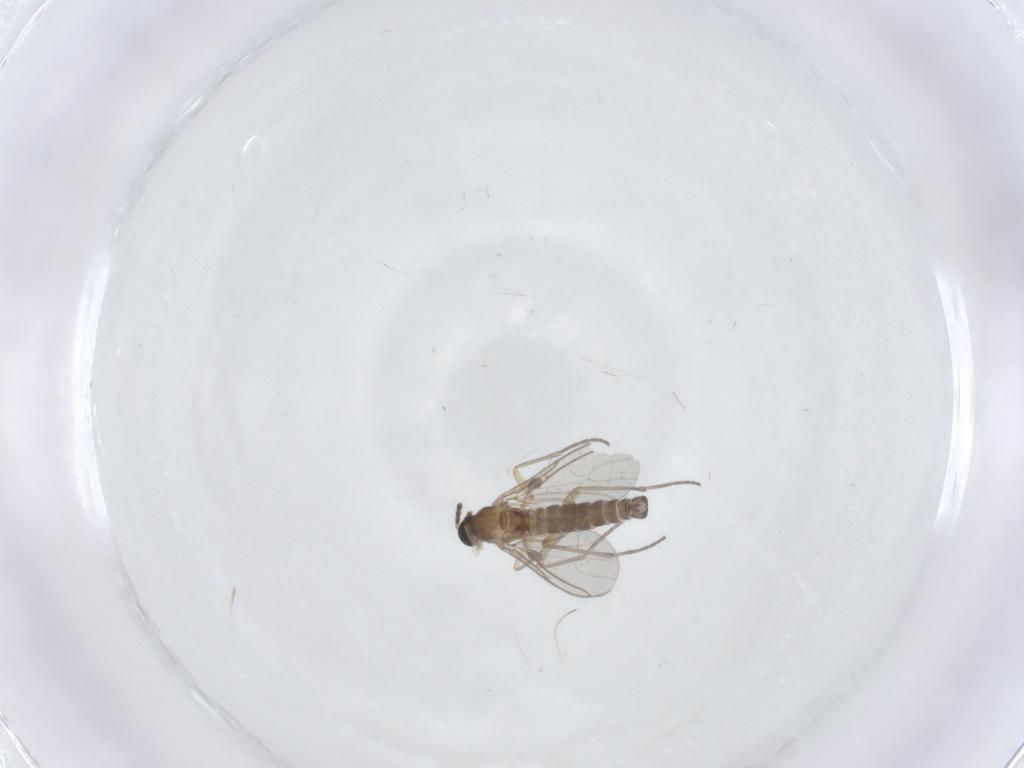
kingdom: Animalia
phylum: Arthropoda
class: Insecta
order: Diptera
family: Sciaridae
